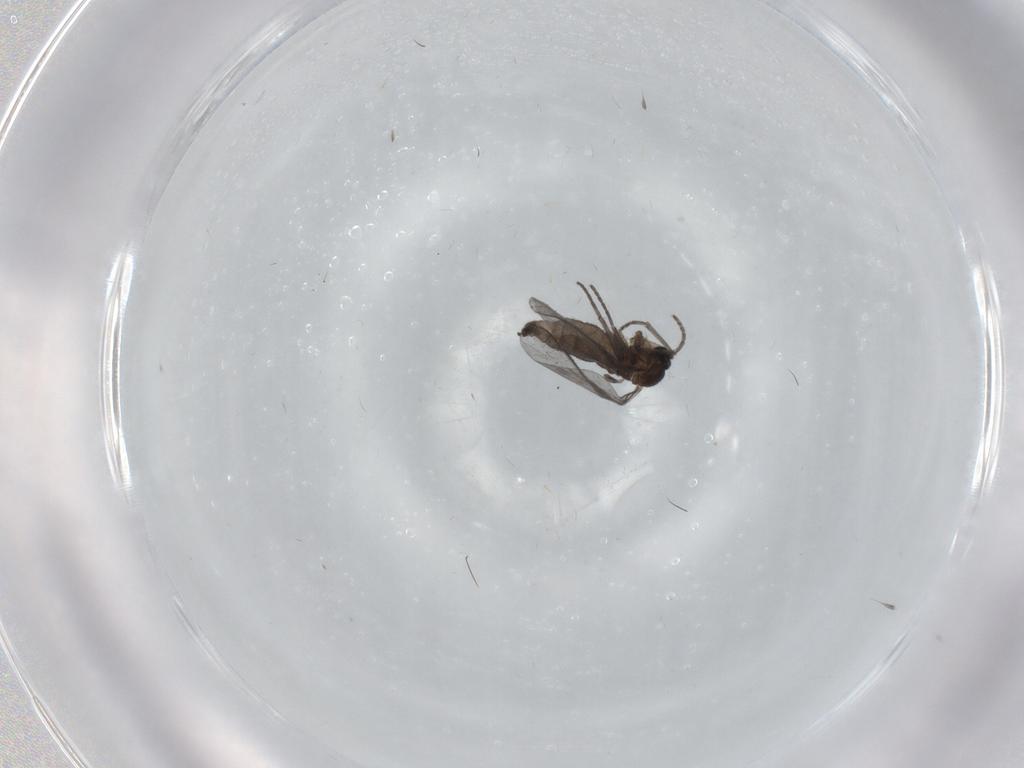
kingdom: Animalia
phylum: Arthropoda
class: Insecta
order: Diptera
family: Sciaridae
